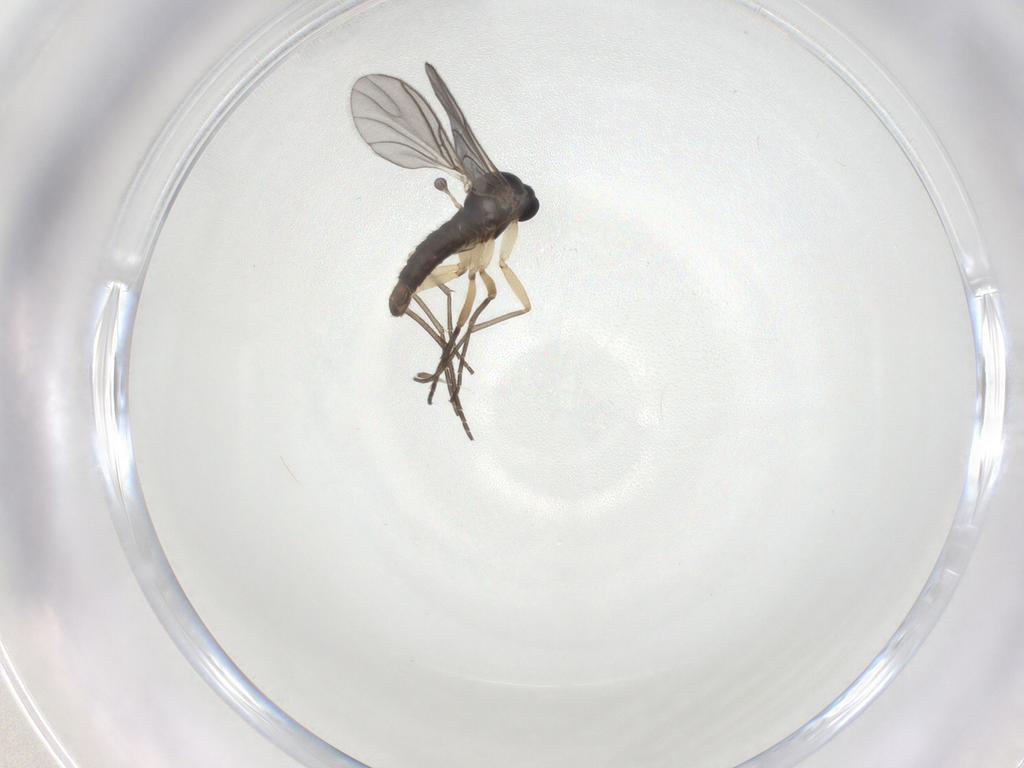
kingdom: Animalia
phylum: Arthropoda
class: Insecta
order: Diptera
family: Sciaridae
